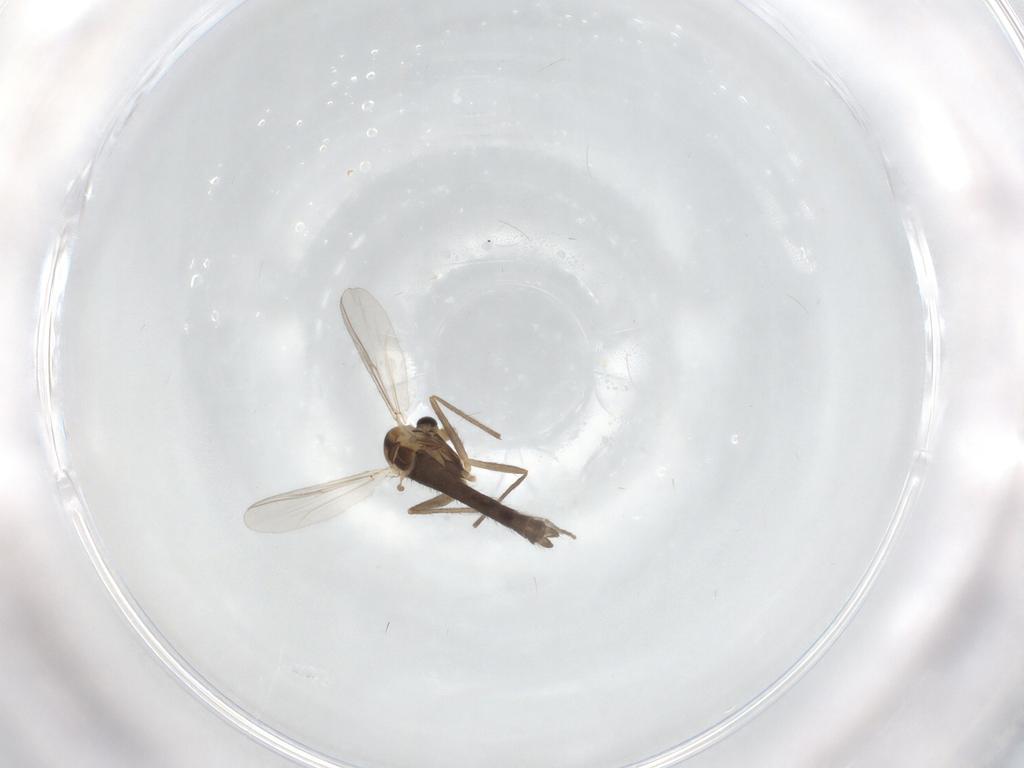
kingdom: Animalia
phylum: Arthropoda
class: Insecta
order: Diptera
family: Chironomidae
